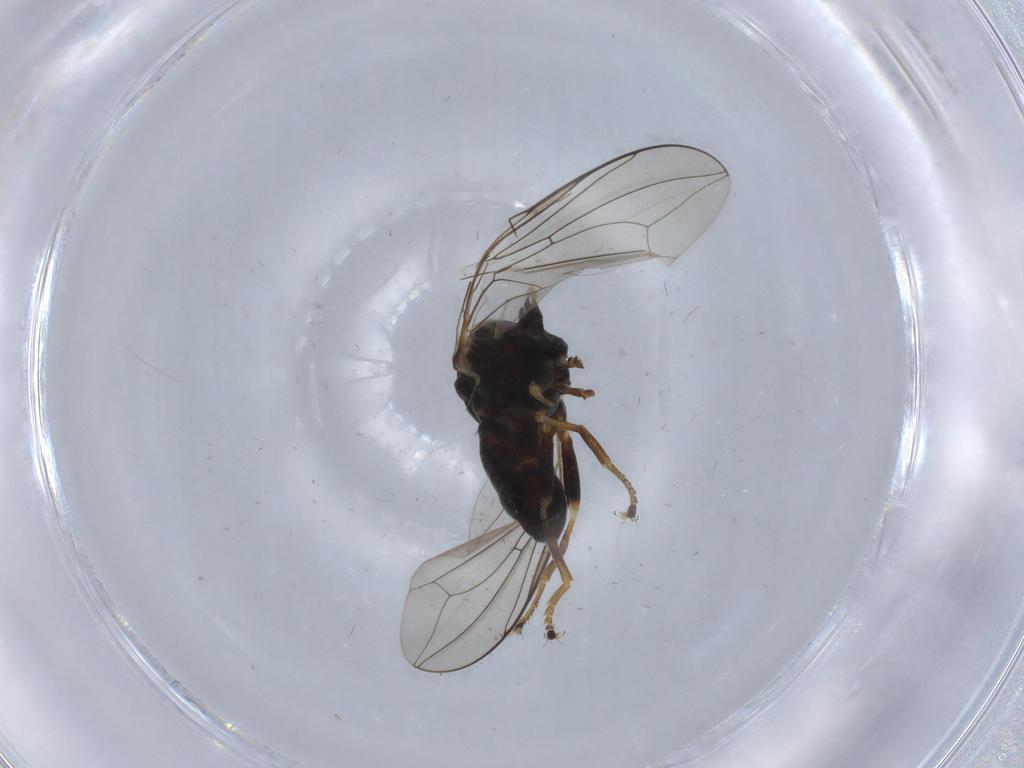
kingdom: Animalia
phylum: Arthropoda
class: Insecta
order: Diptera
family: Pipunculidae
